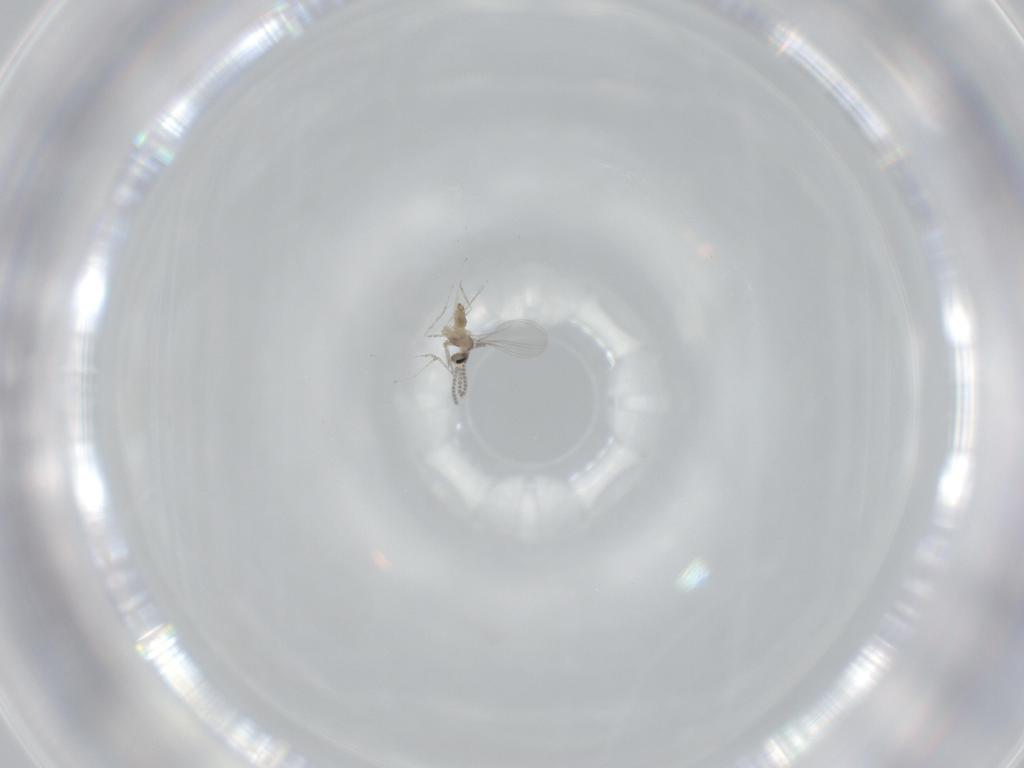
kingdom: Animalia
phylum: Arthropoda
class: Insecta
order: Diptera
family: Cecidomyiidae
